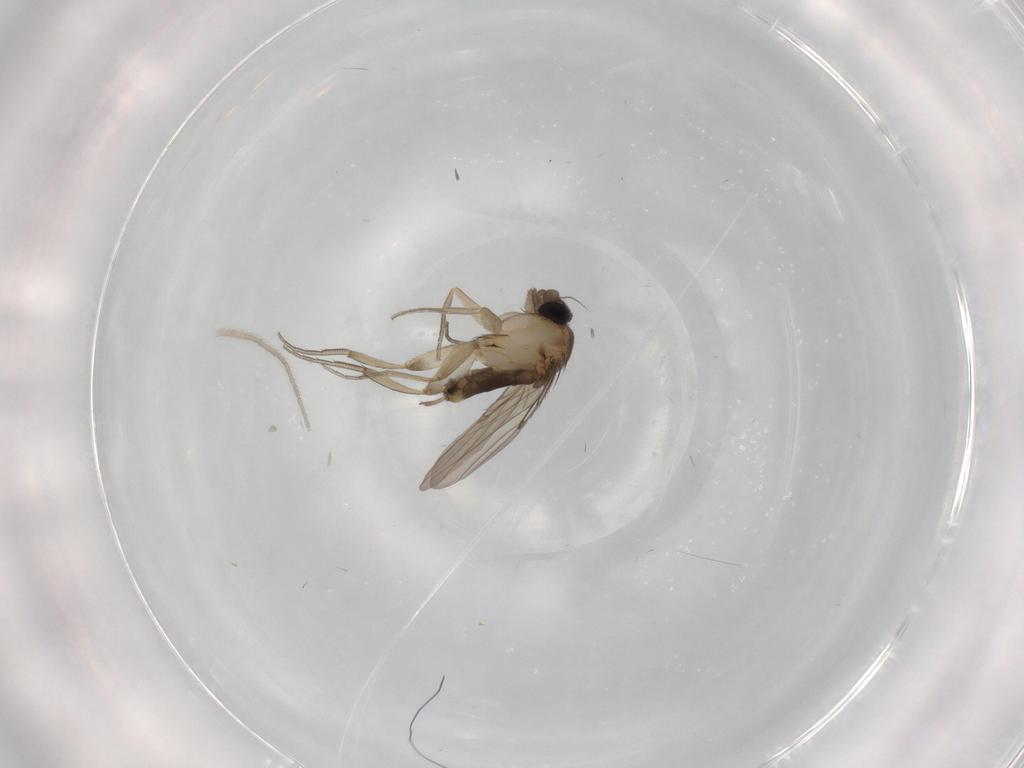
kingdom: Animalia
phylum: Arthropoda
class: Insecta
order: Diptera
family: Phoridae
